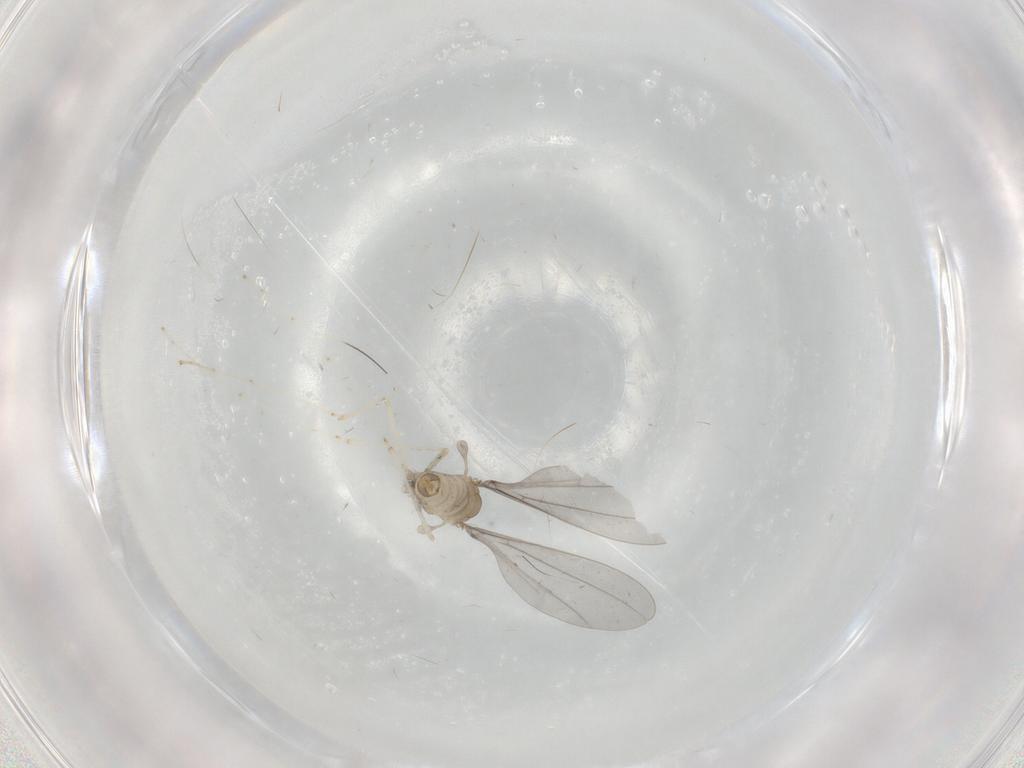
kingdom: Animalia
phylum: Arthropoda
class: Insecta
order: Diptera
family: Cecidomyiidae
